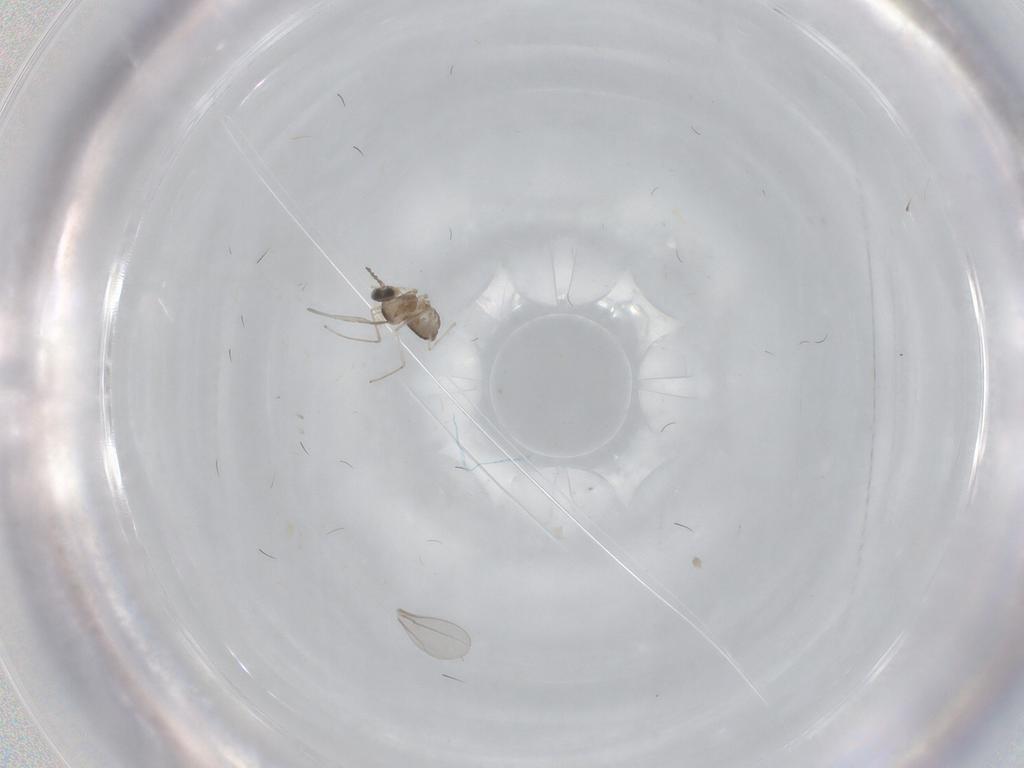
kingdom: Animalia
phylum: Arthropoda
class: Insecta
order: Diptera
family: Cecidomyiidae
